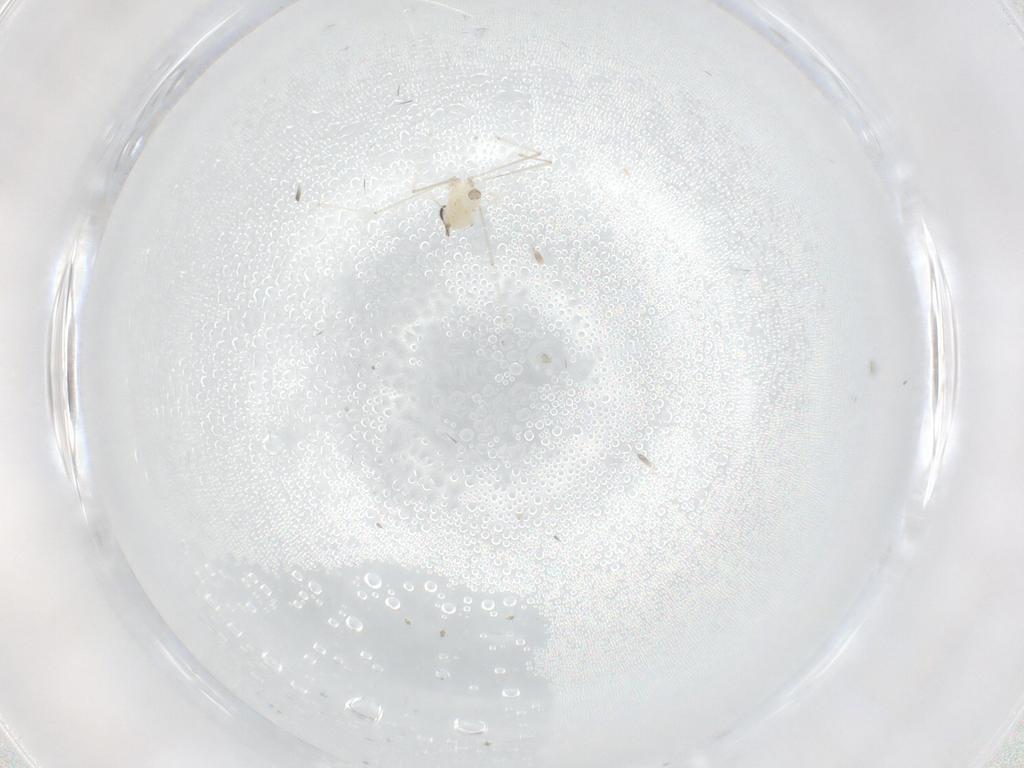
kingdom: Animalia
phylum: Arthropoda
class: Insecta
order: Diptera
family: Cecidomyiidae
